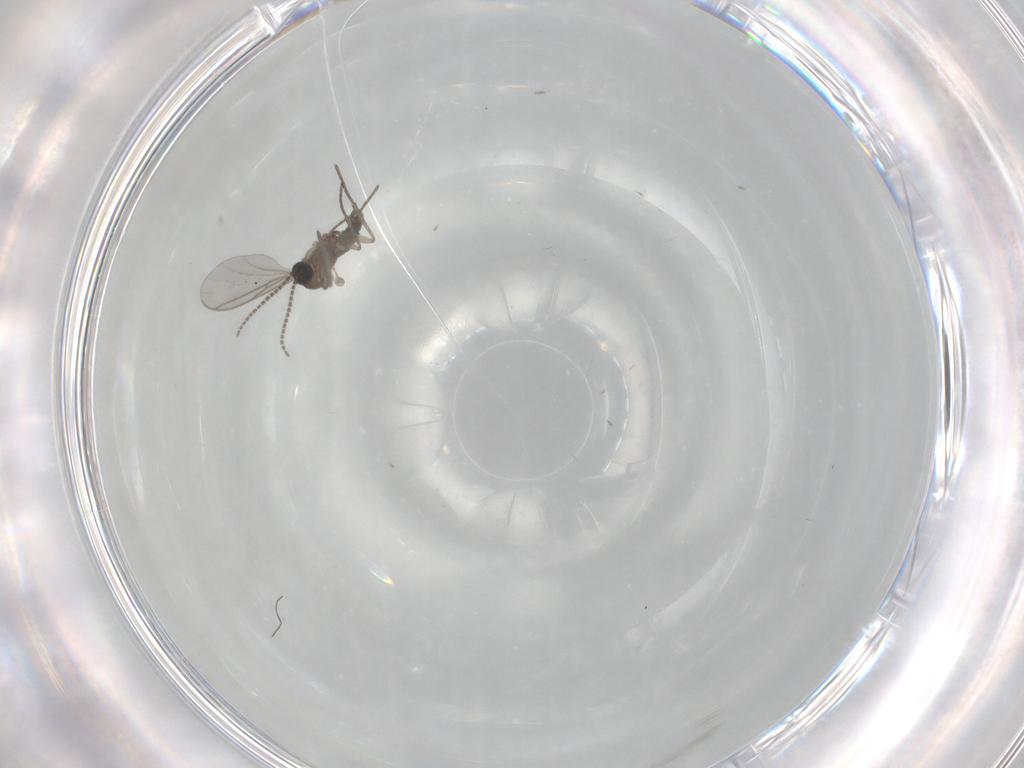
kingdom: Animalia
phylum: Arthropoda
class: Insecta
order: Diptera
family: Sciaridae
